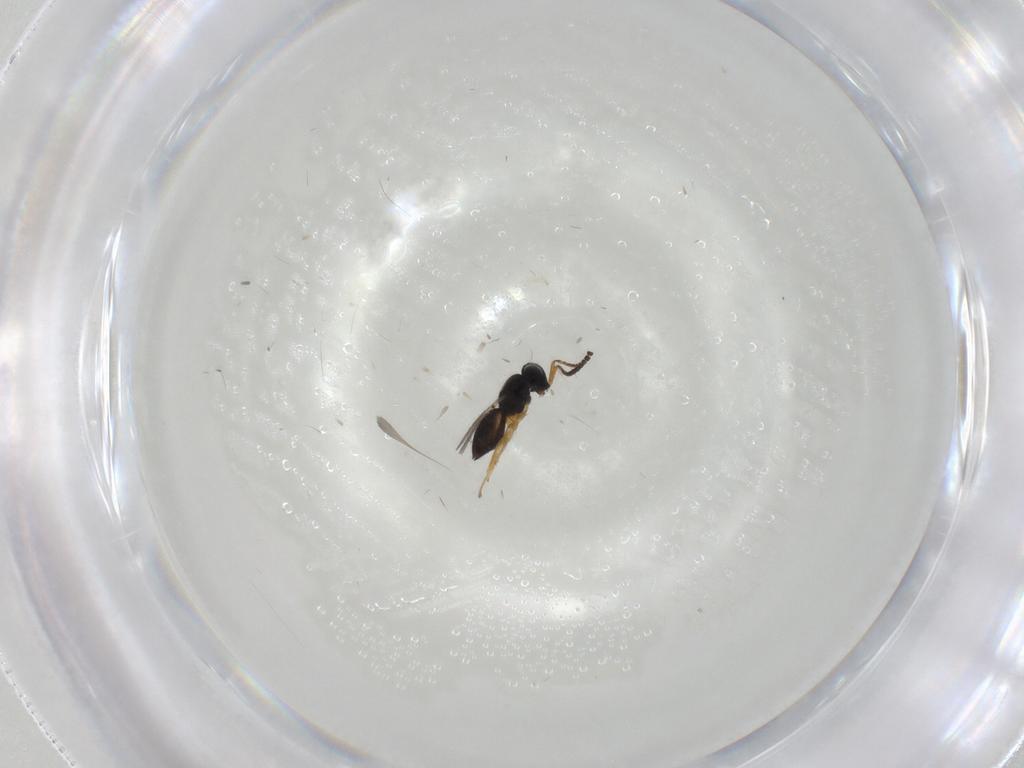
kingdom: Animalia
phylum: Arthropoda
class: Insecta
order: Hymenoptera
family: Scelionidae
